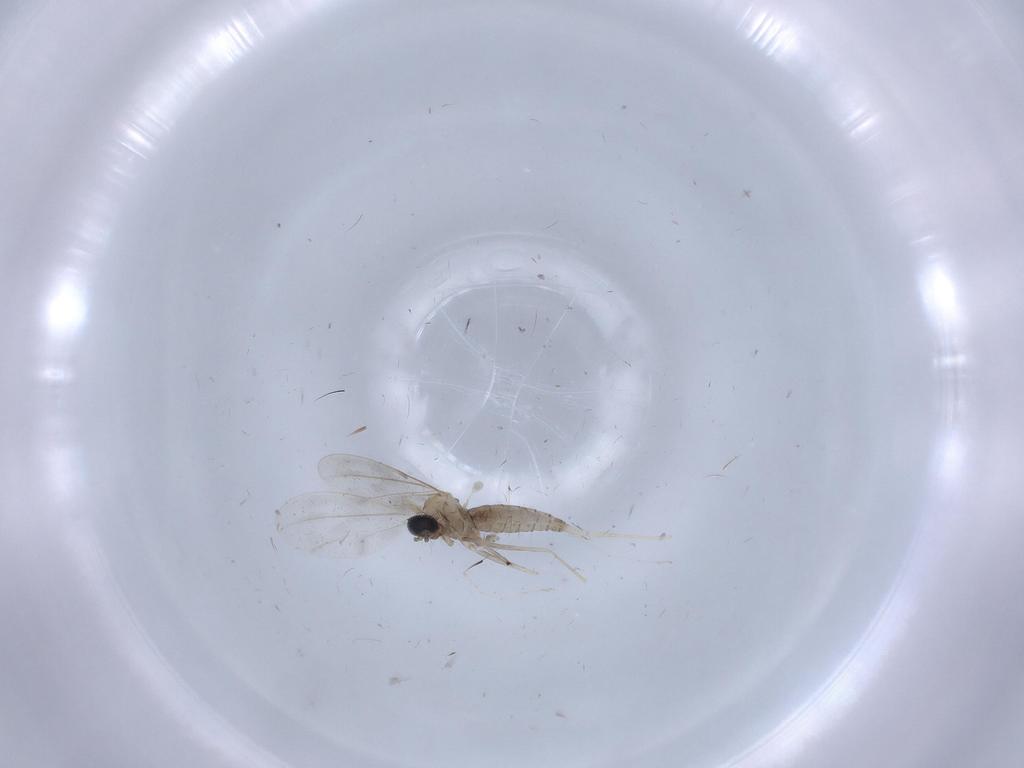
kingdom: Animalia
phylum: Arthropoda
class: Insecta
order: Diptera
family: Cecidomyiidae
